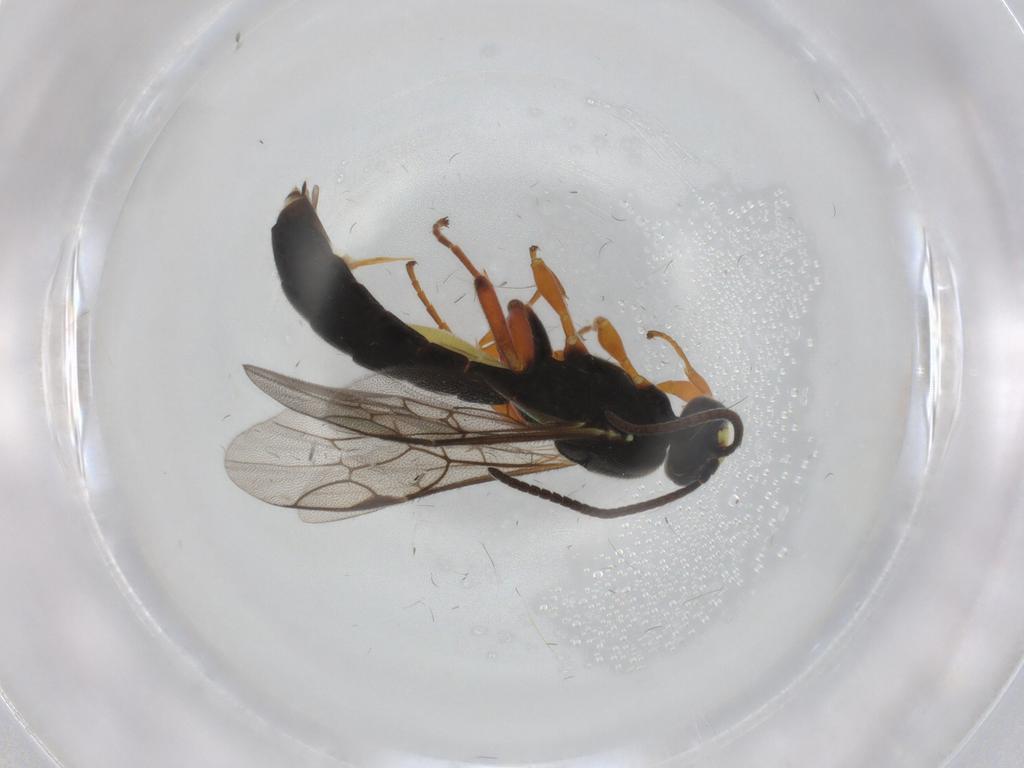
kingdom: Animalia
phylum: Arthropoda
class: Insecta
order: Hymenoptera
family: Ichneumonidae
